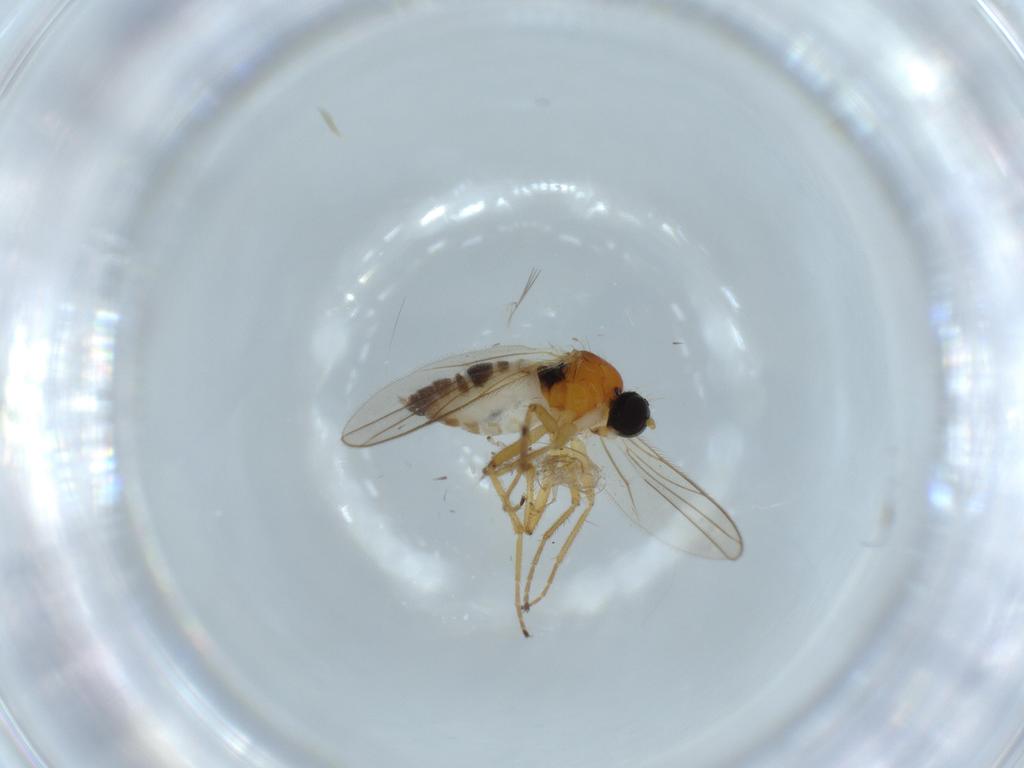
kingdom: Animalia
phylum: Arthropoda
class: Insecta
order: Diptera
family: Hybotidae
